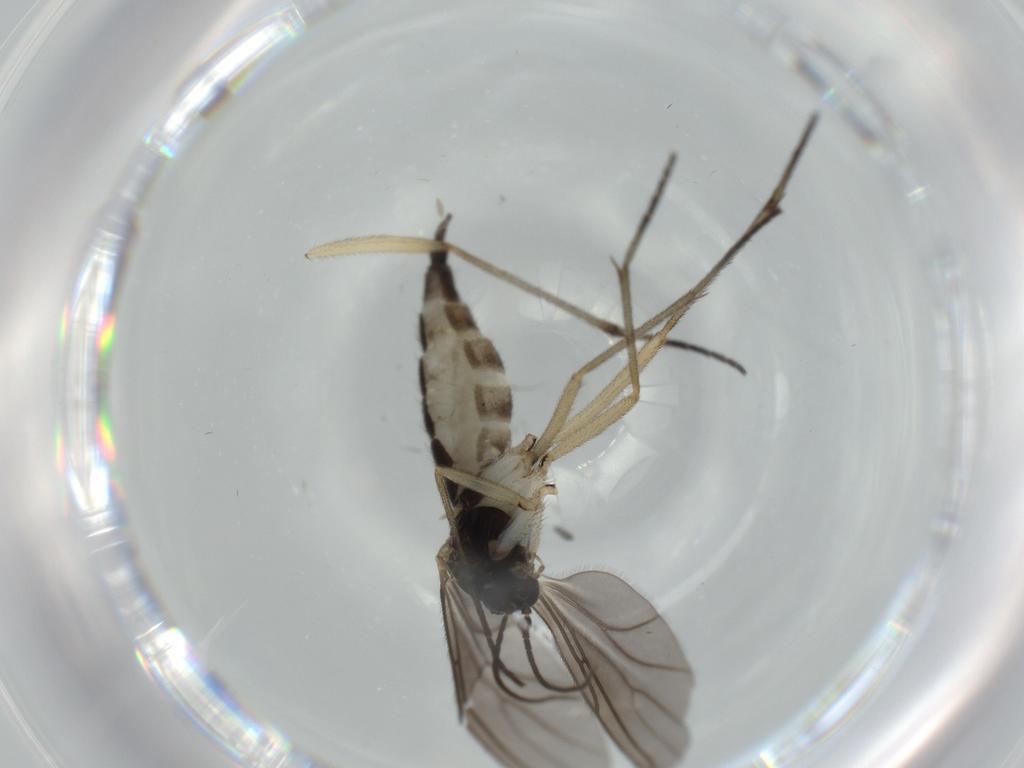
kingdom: Animalia
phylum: Arthropoda
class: Insecta
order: Diptera
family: Sciaridae
